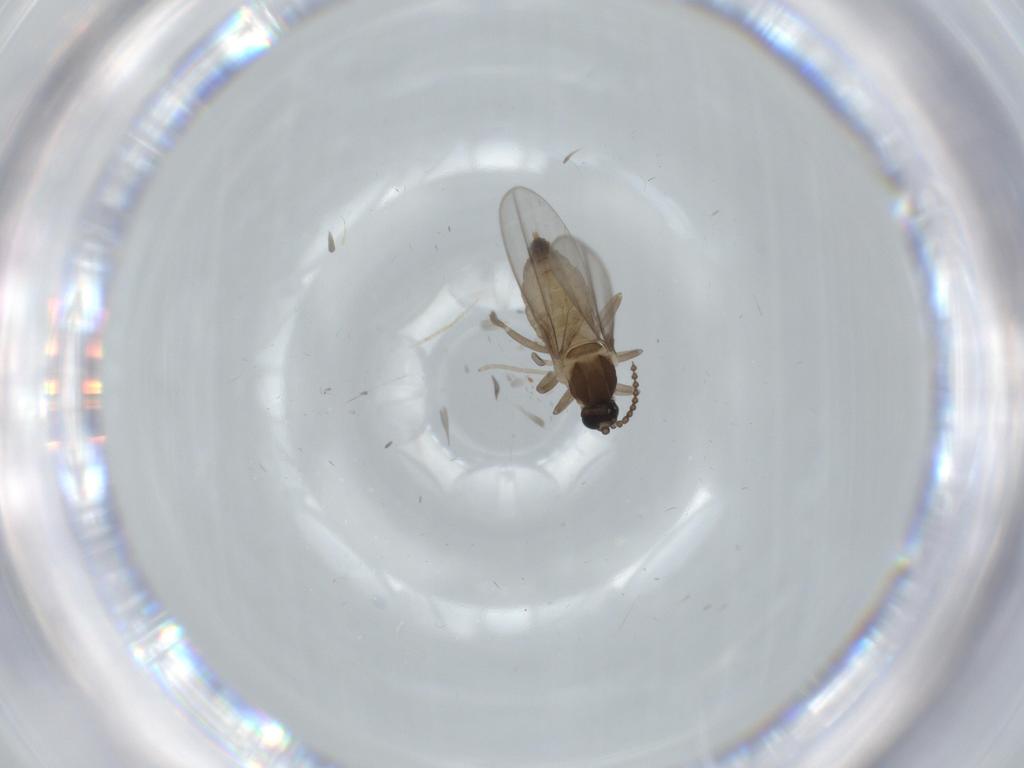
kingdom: Animalia
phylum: Arthropoda
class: Insecta
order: Diptera
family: Cecidomyiidae
